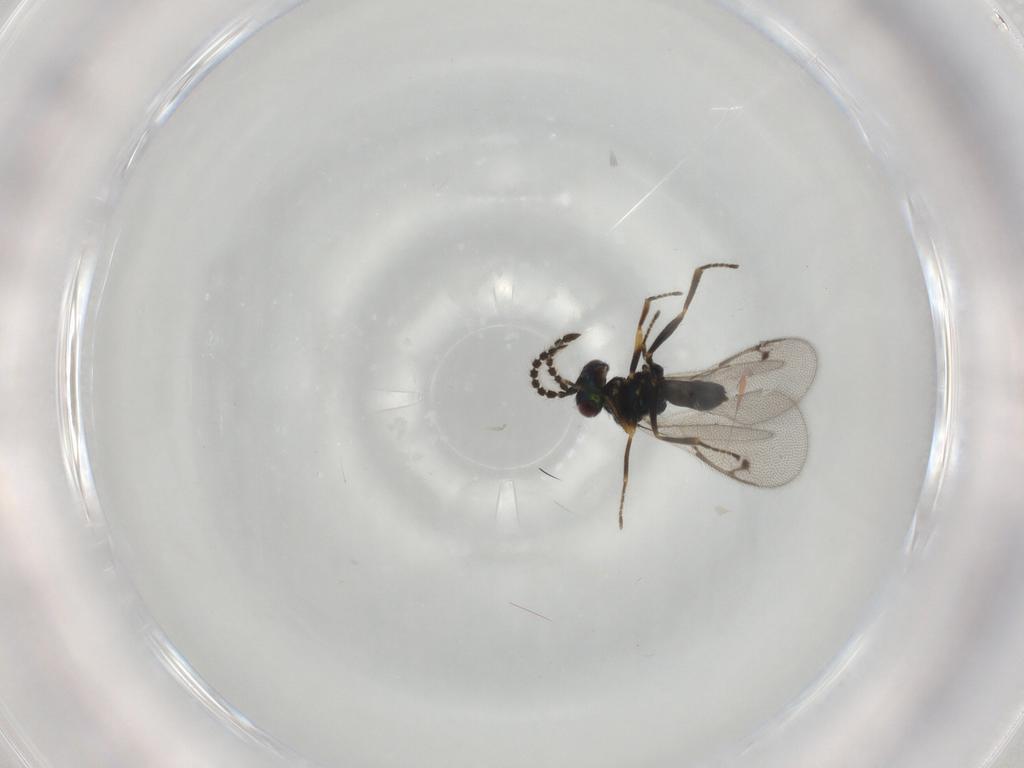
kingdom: Animalia
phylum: Arthropoda
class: Insecta
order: Hymenoptera
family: Pirenidae
